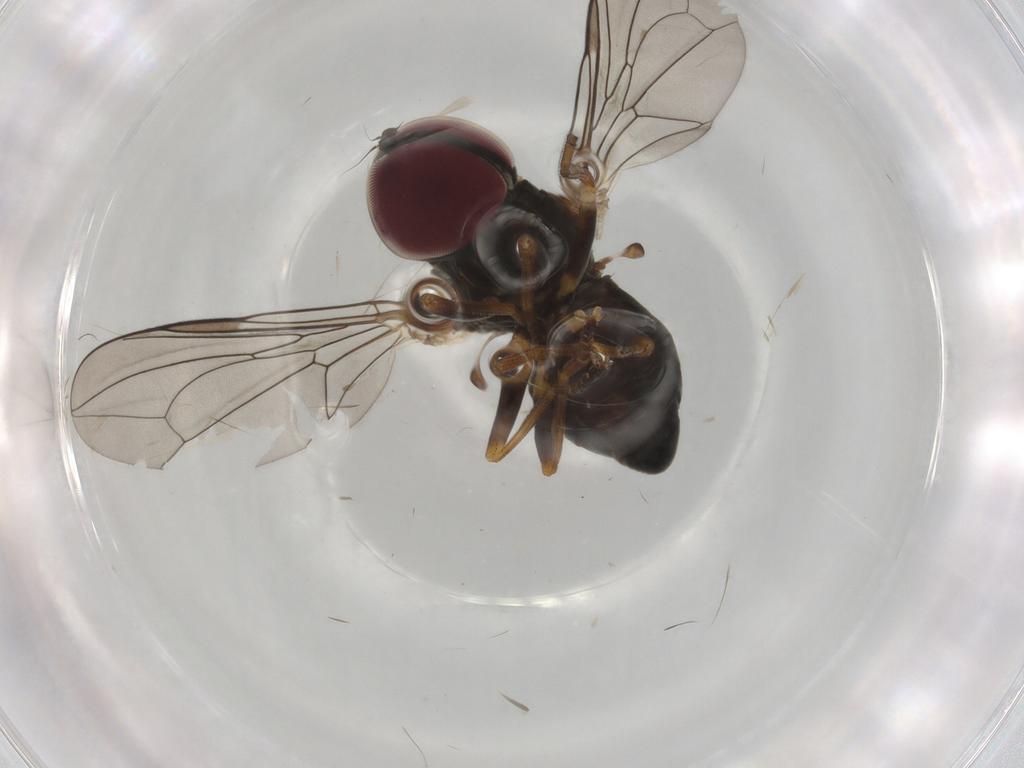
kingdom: Animalia
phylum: Arthropoda
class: Insecta
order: Diptera
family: Pipunculidae
